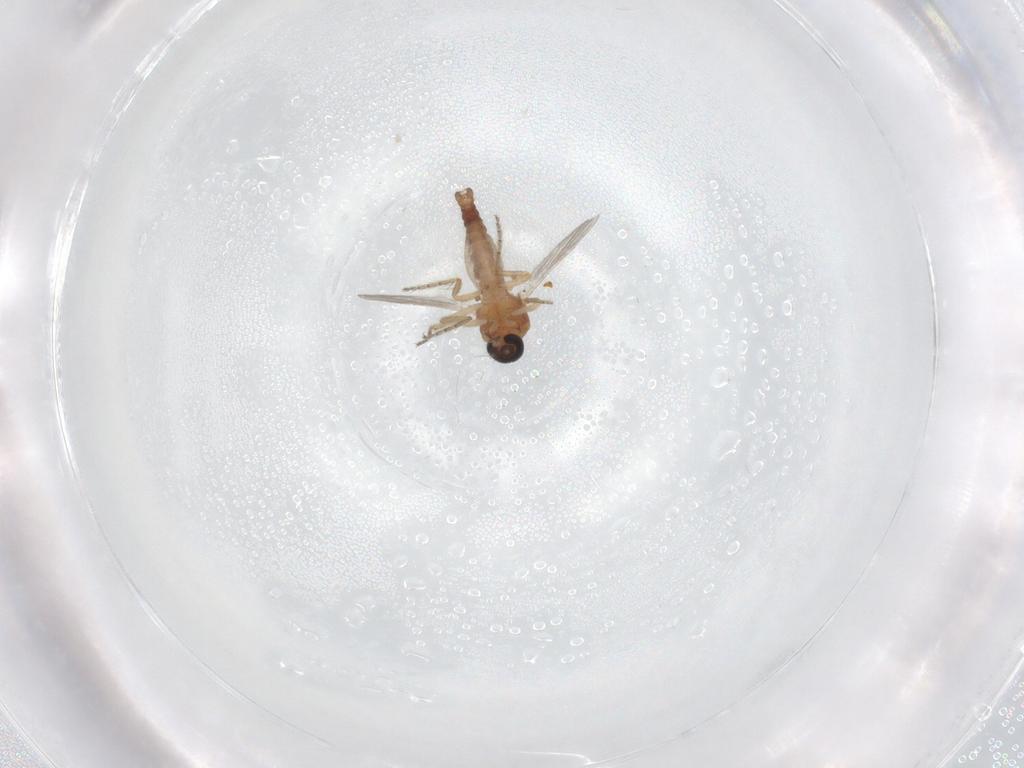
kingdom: Animalia
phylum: Arthropoda
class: Insecta
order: Diptera
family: Ceratopogonidae
